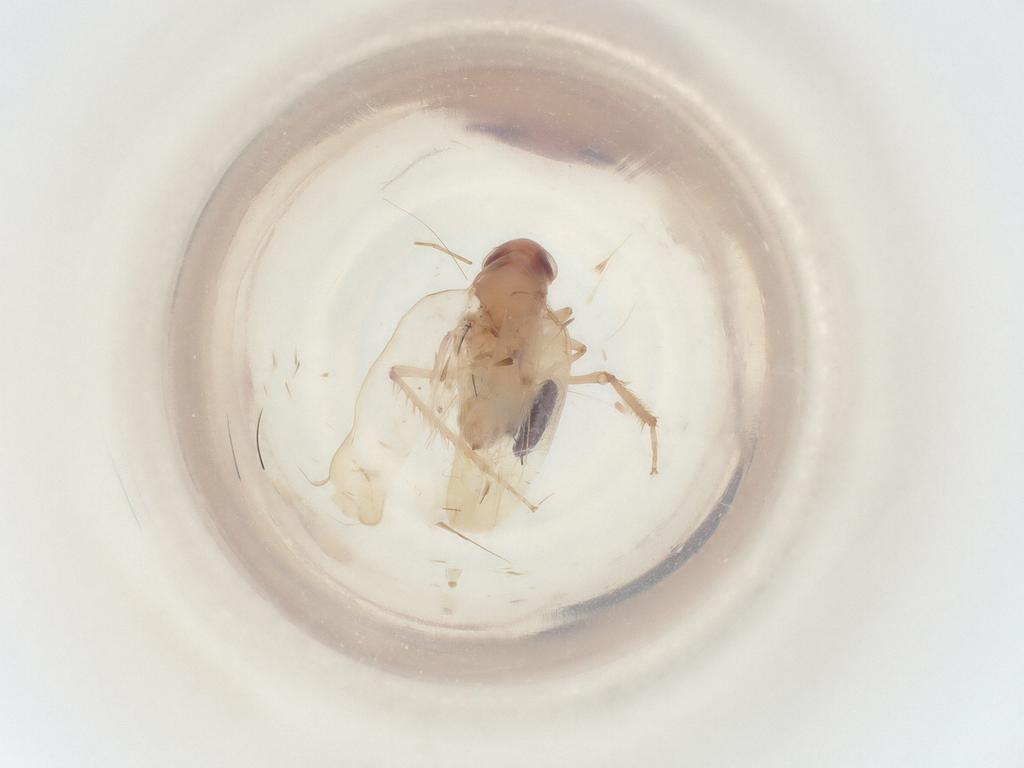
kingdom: Animalia
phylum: Arthropoda
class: Insecta
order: Hemiptera
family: Cicadellidae
